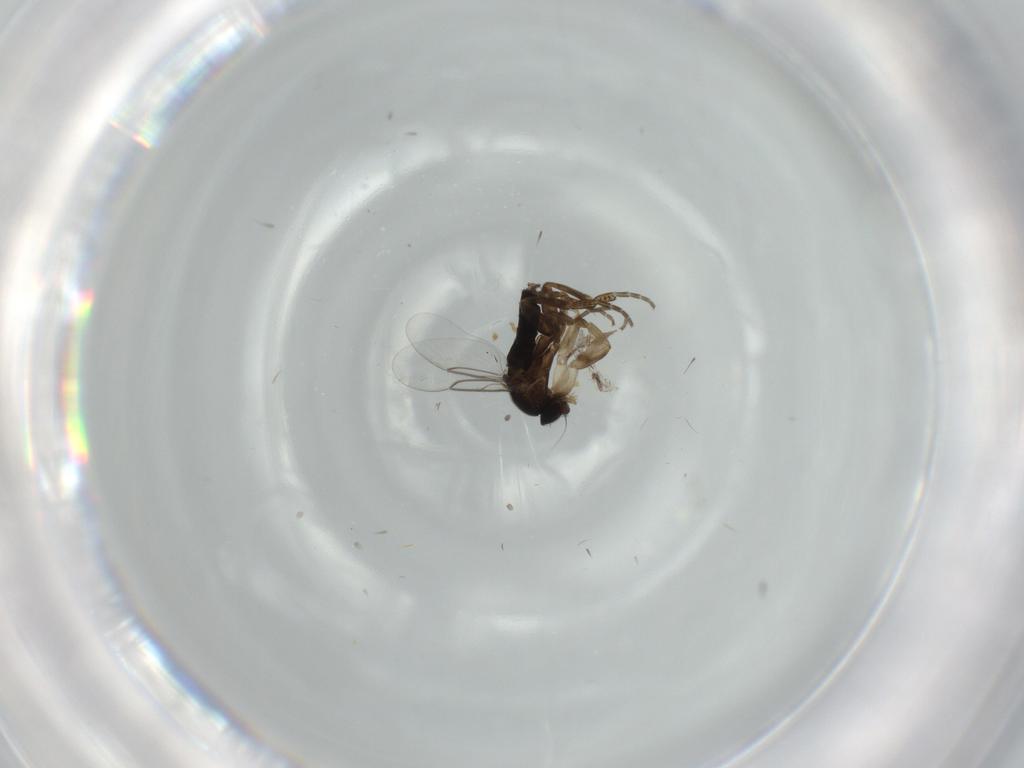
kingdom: Animalia
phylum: Arthropoda
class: Insecta
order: Diptera
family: Phoridae
